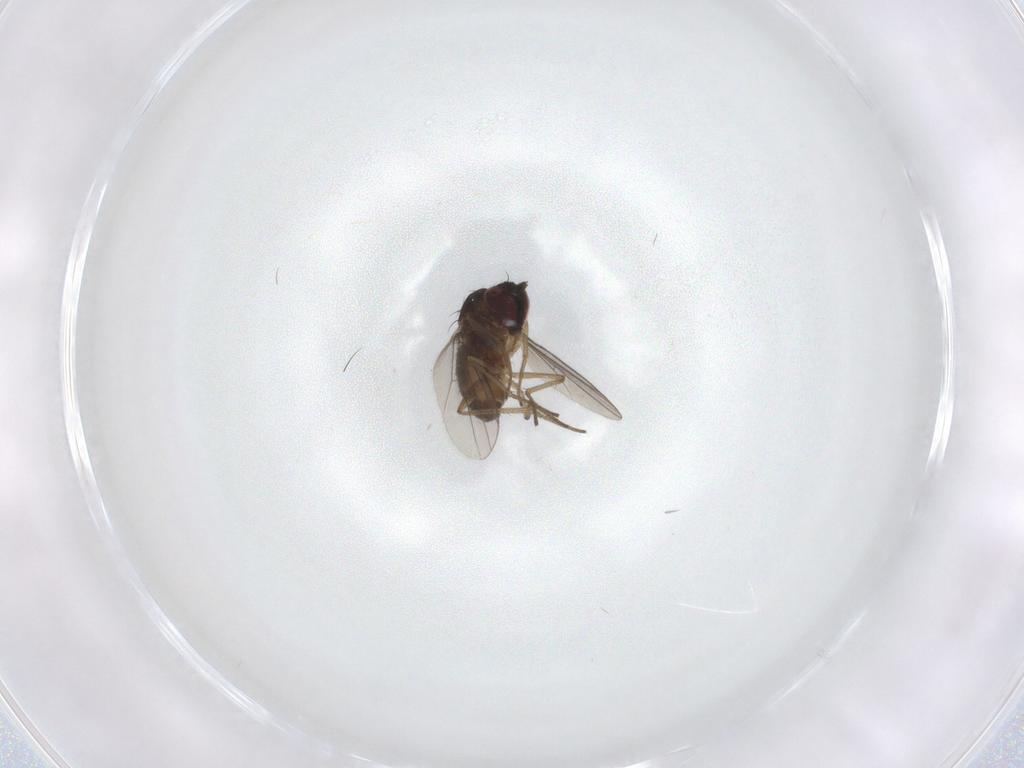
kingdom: Animalia
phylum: Arthropoda
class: Insecta
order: Diptera
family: Dolichopodidae
